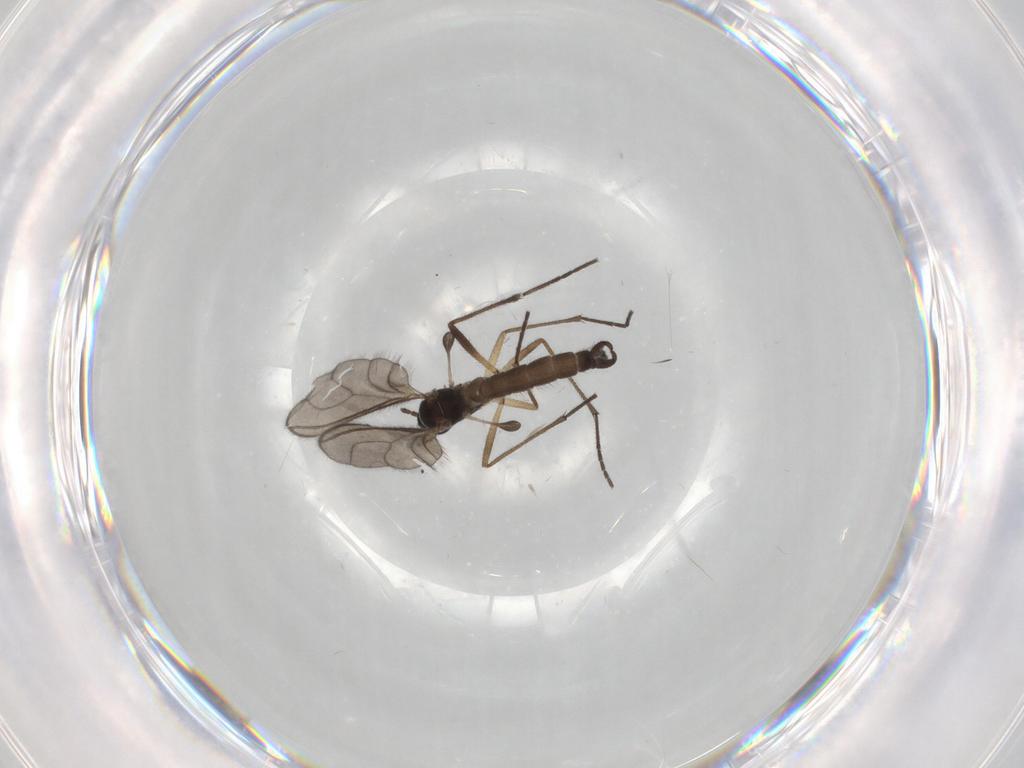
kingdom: Animalia
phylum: Arthropoda
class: Insecta
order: Diptera
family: Sciaridae
